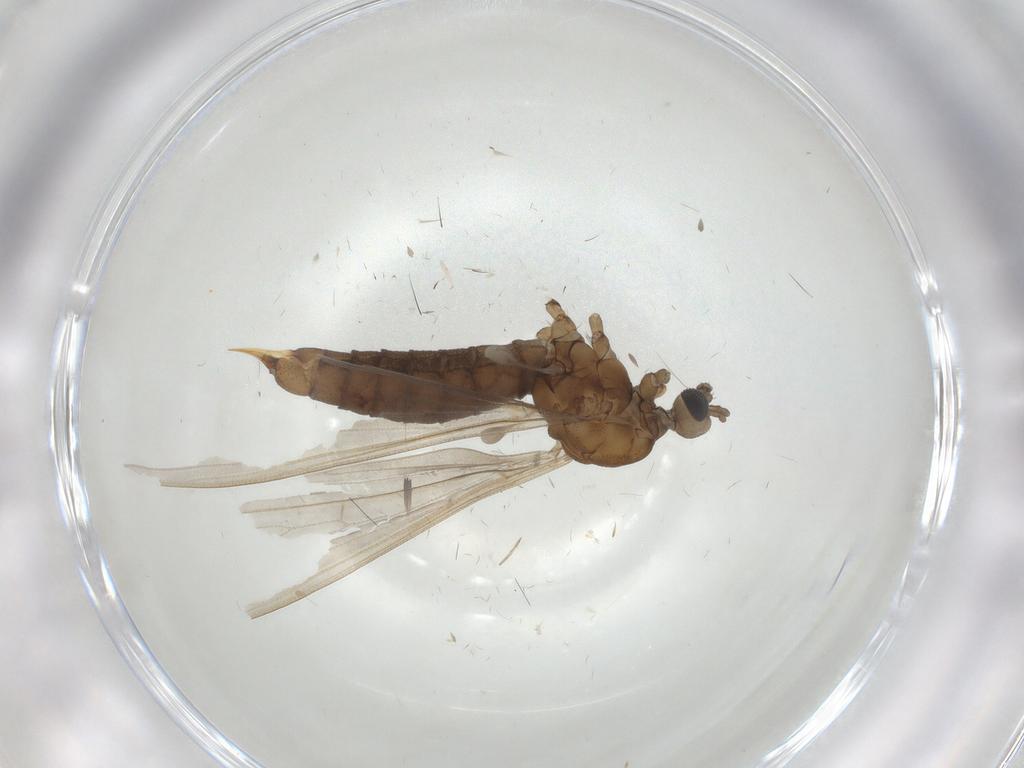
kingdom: Animalia
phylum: Arthropoda
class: Insecta
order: Diptera
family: Limoniidae
